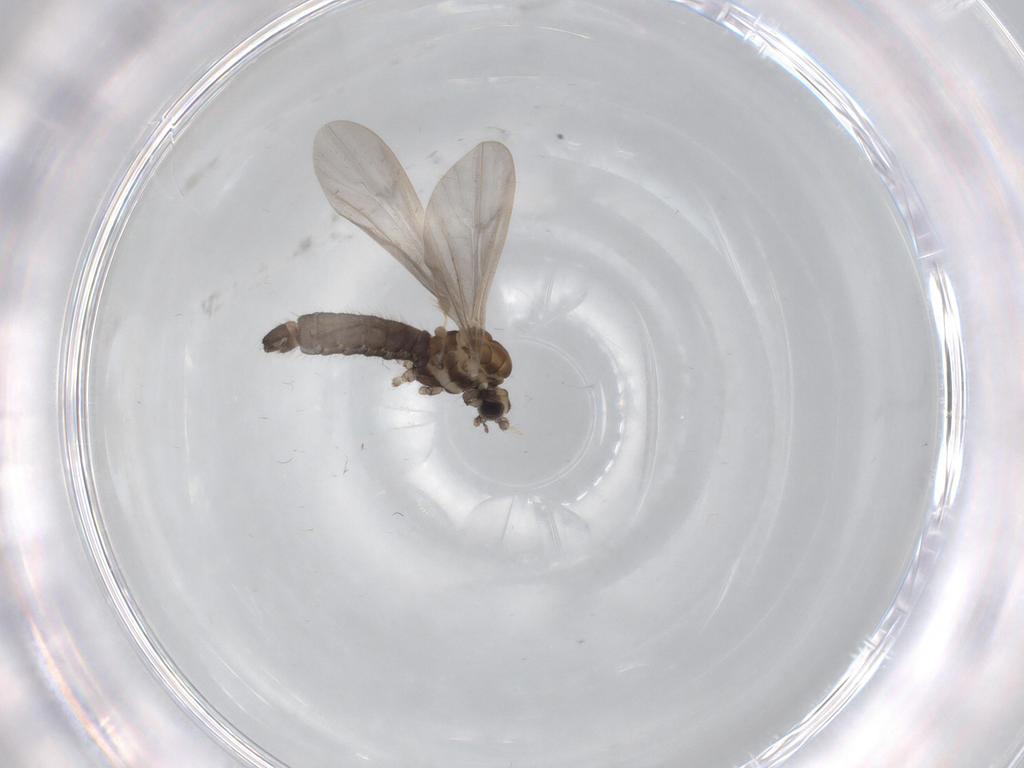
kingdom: Animalia
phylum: Arthropoda
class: Insecta
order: Diptera
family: Limoniidae
